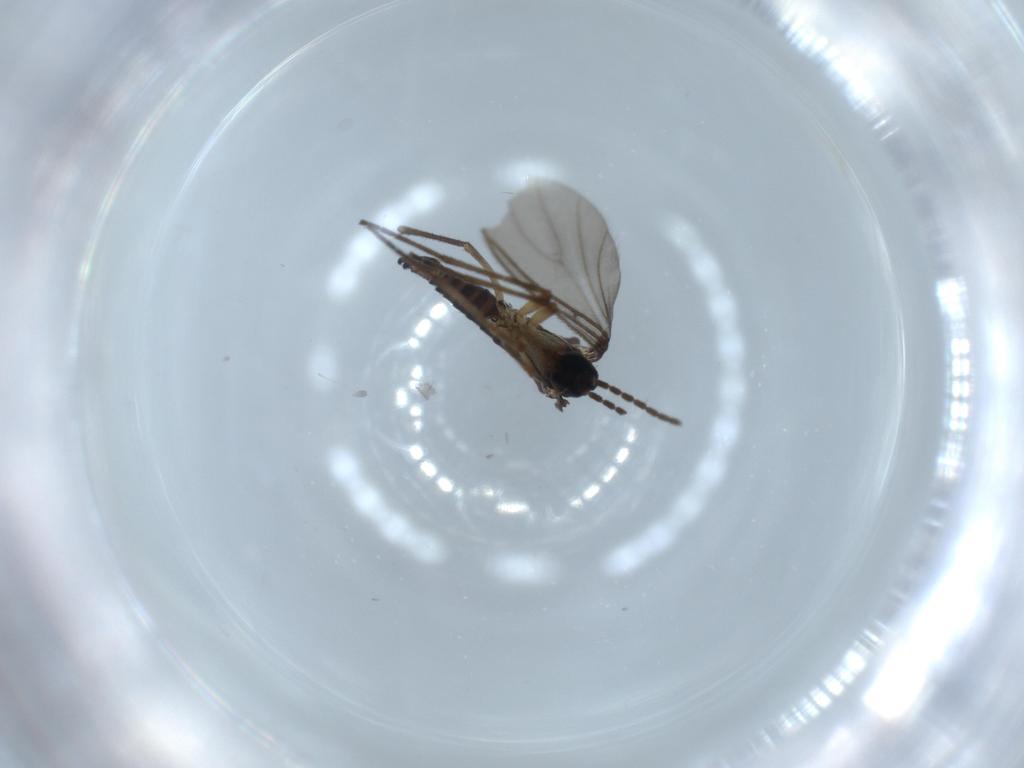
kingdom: Animalia
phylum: Arthropoda
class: Insecta
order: Diptera
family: Sciaridae
